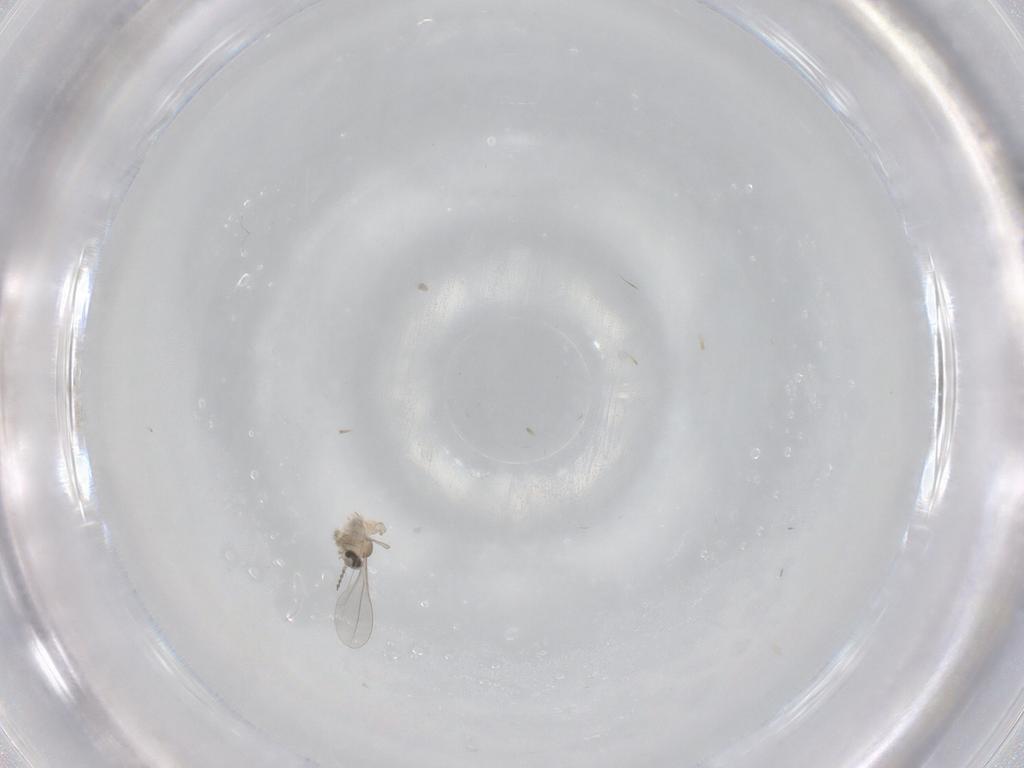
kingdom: Animalia
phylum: Arthropoda
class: Insecta
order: Diptera
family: Cecidomyiidae
